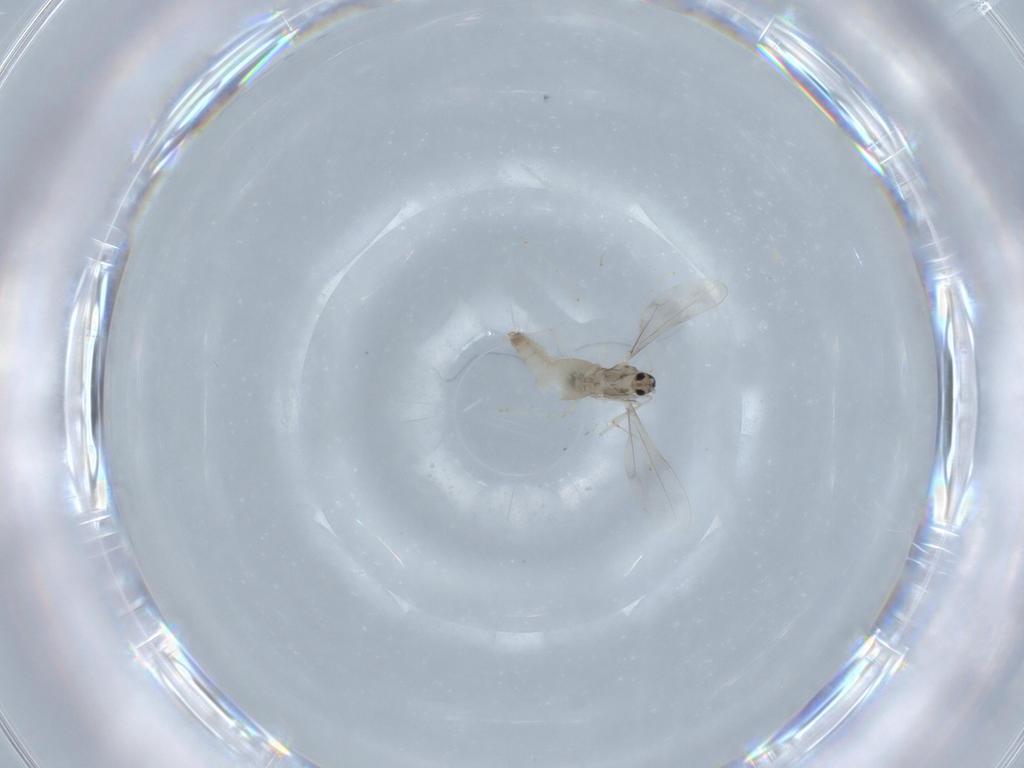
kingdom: Animalia
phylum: Arthropoda
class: Insecta
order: Diptera
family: Cecidomyiidae
